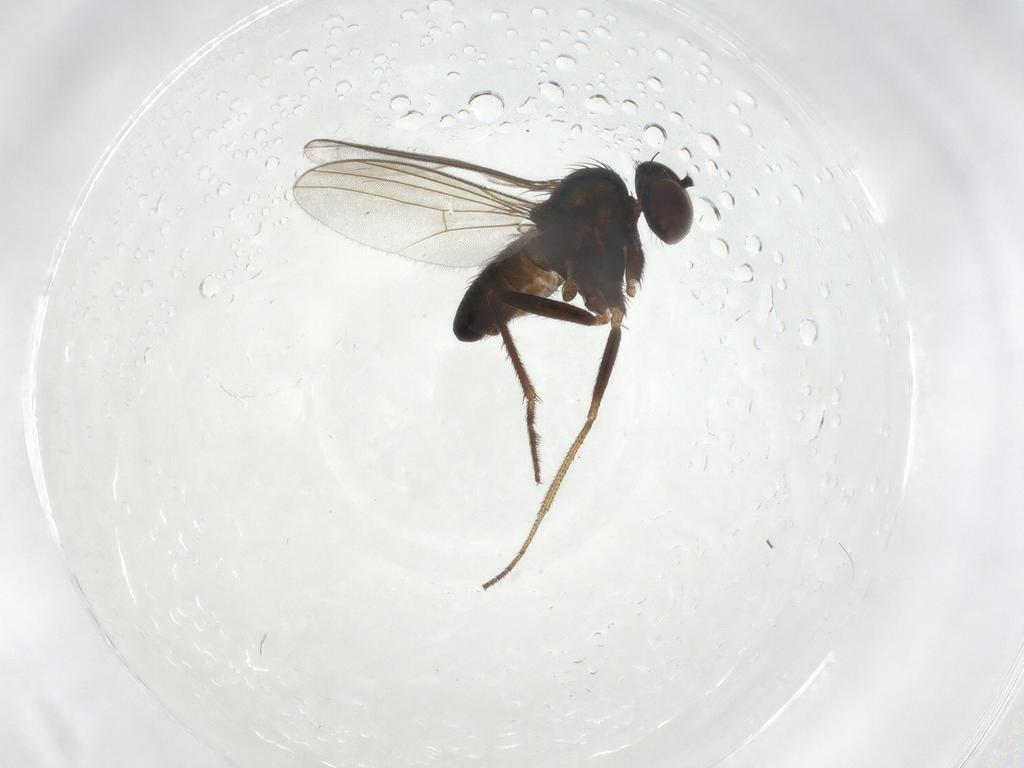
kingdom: Animalia
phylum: Arthropoda
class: Insecta
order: Diptera
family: Dolichopodidae
